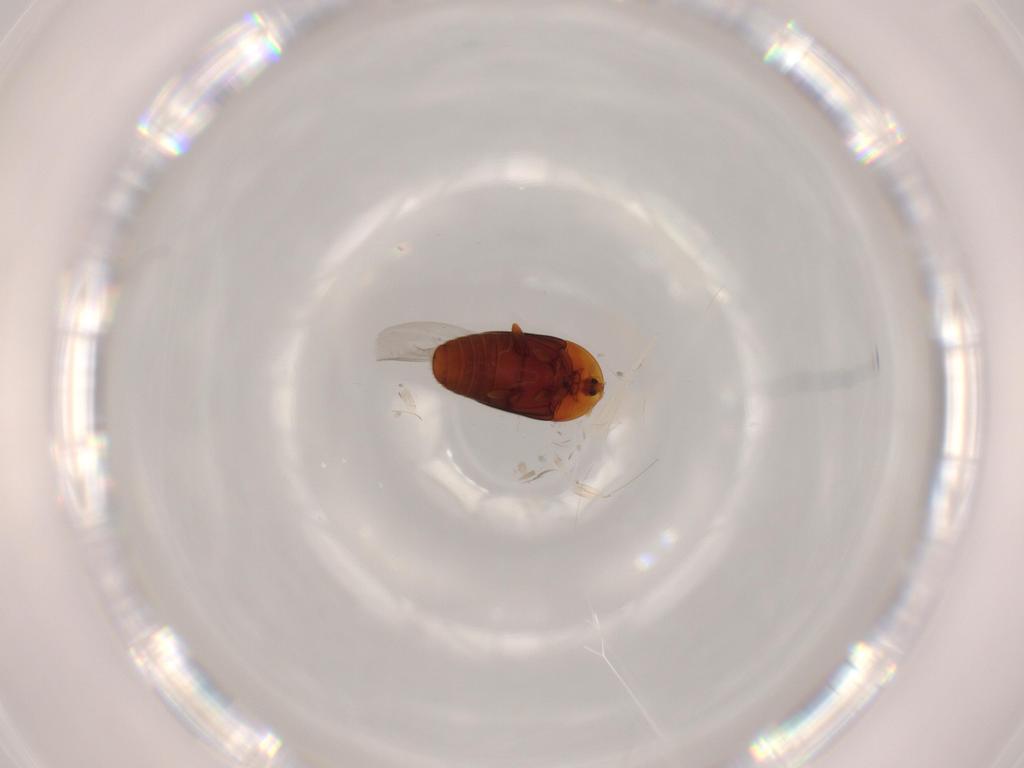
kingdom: Animalia
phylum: Arthropoda
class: Insecta
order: Coleoptera
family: Corylophidae
